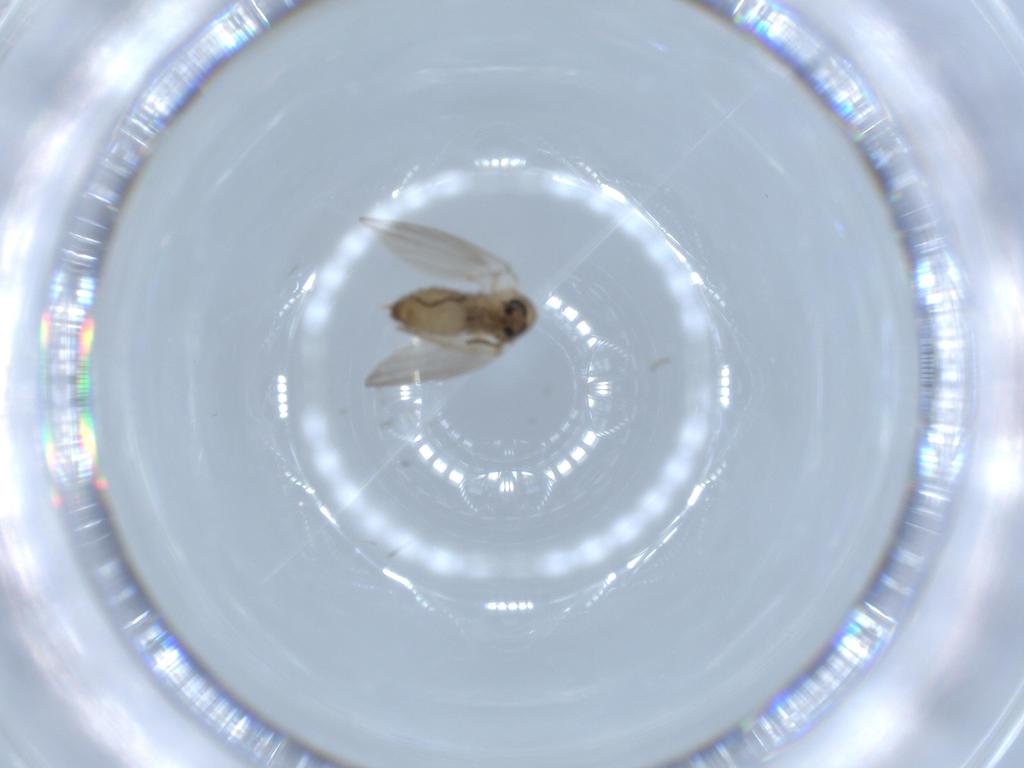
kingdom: Animalia
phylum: Arthropoda
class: Insecta
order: Diptera
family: Psychodidae
